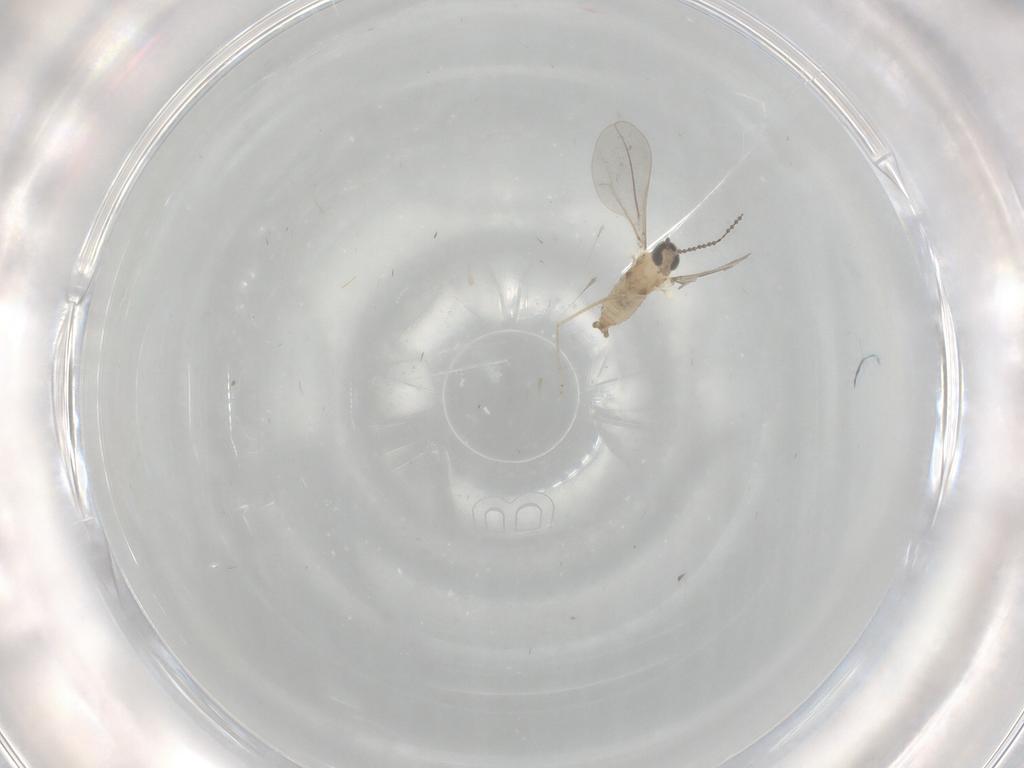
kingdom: Animalia
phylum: Arthropoda
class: Insecta
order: Diptera
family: Cecidomyiidae
